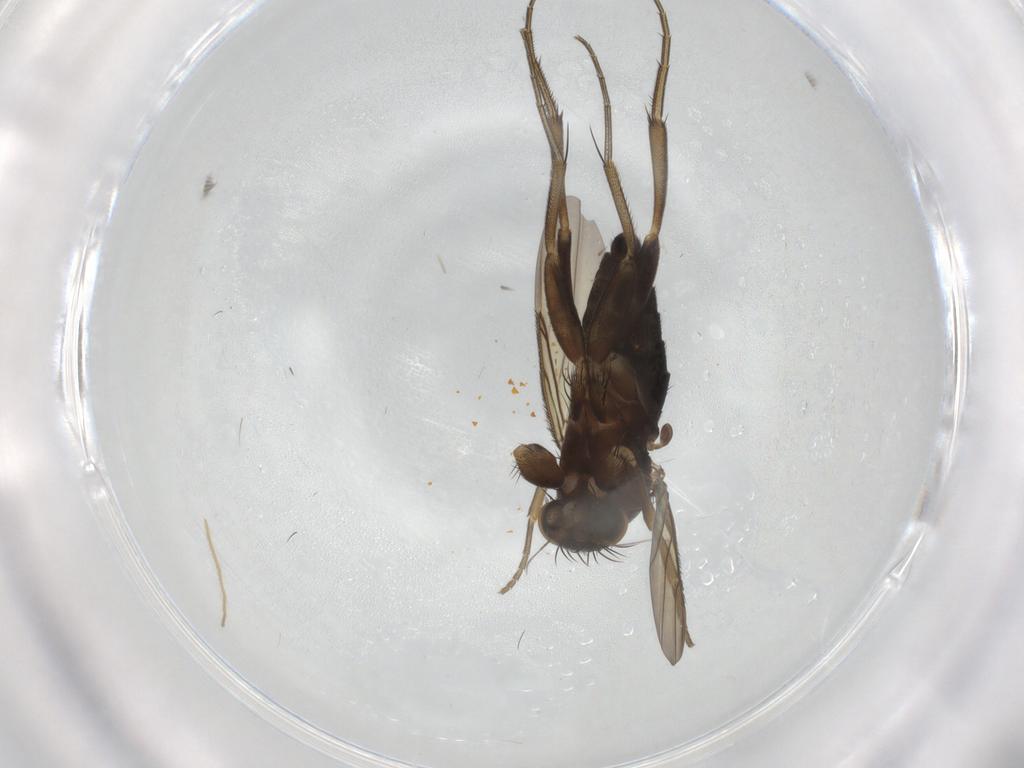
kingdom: Animalia
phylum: Arthropoda
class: Insecta
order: Diptera
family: Phoridae
